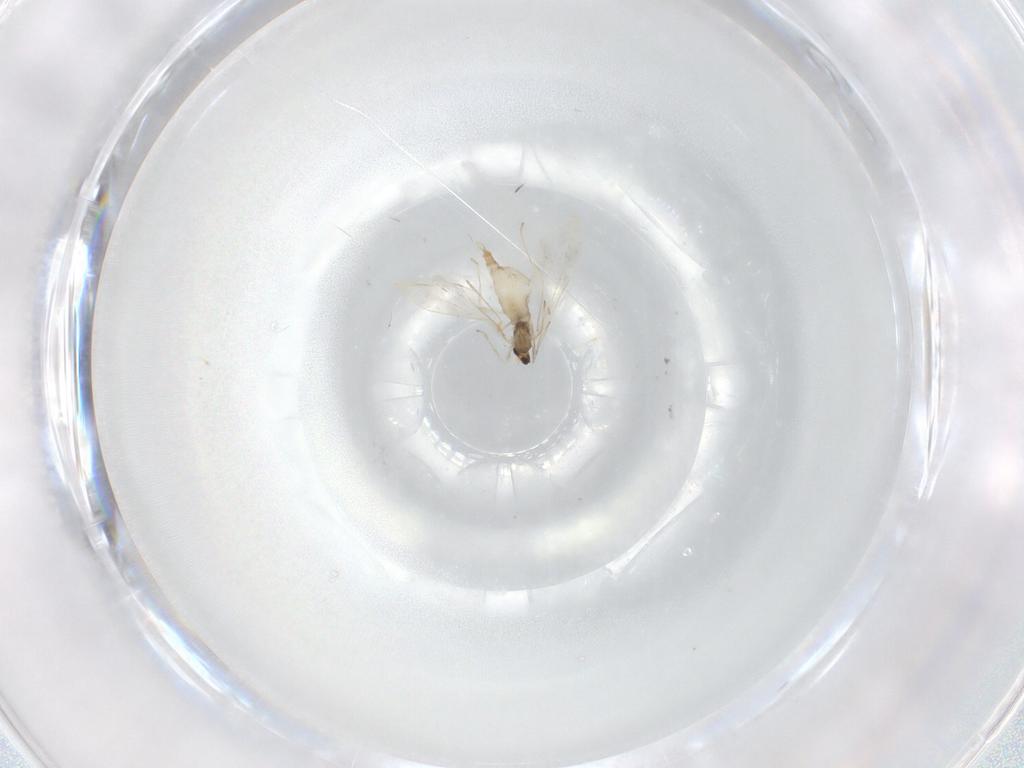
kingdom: Animalia
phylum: Arthropoda
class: Insecta
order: Diptera
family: Cecidomyiidae
